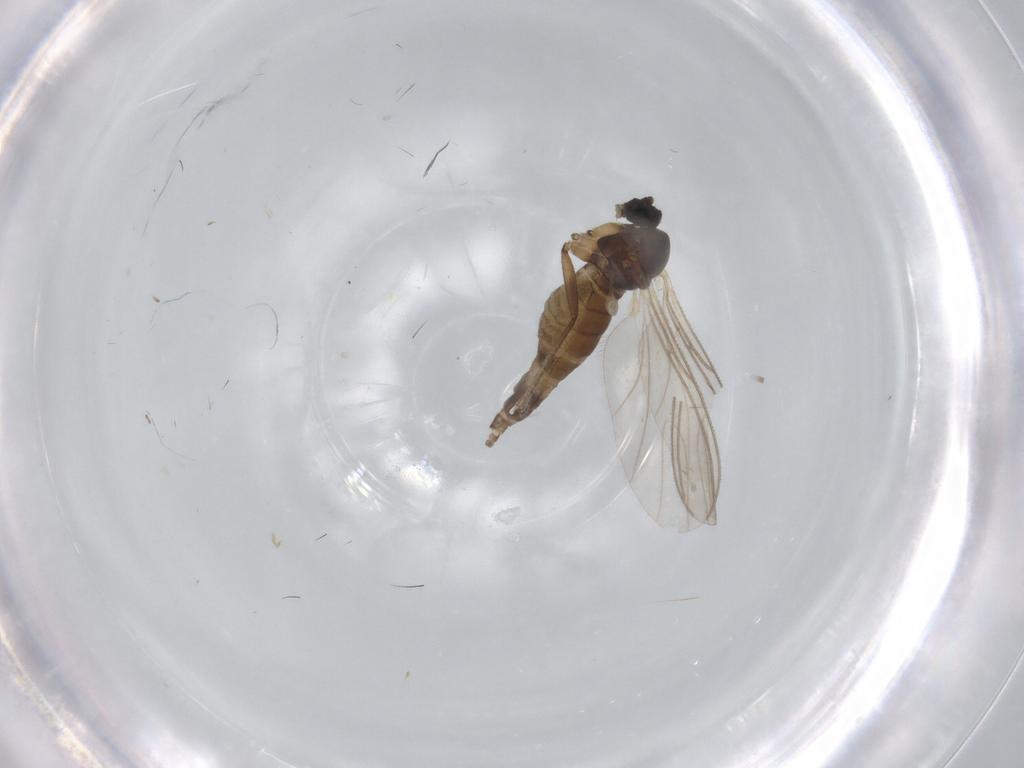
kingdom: Animalia
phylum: Arthropoda
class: Insecta
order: Diptera
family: Sciaridae
